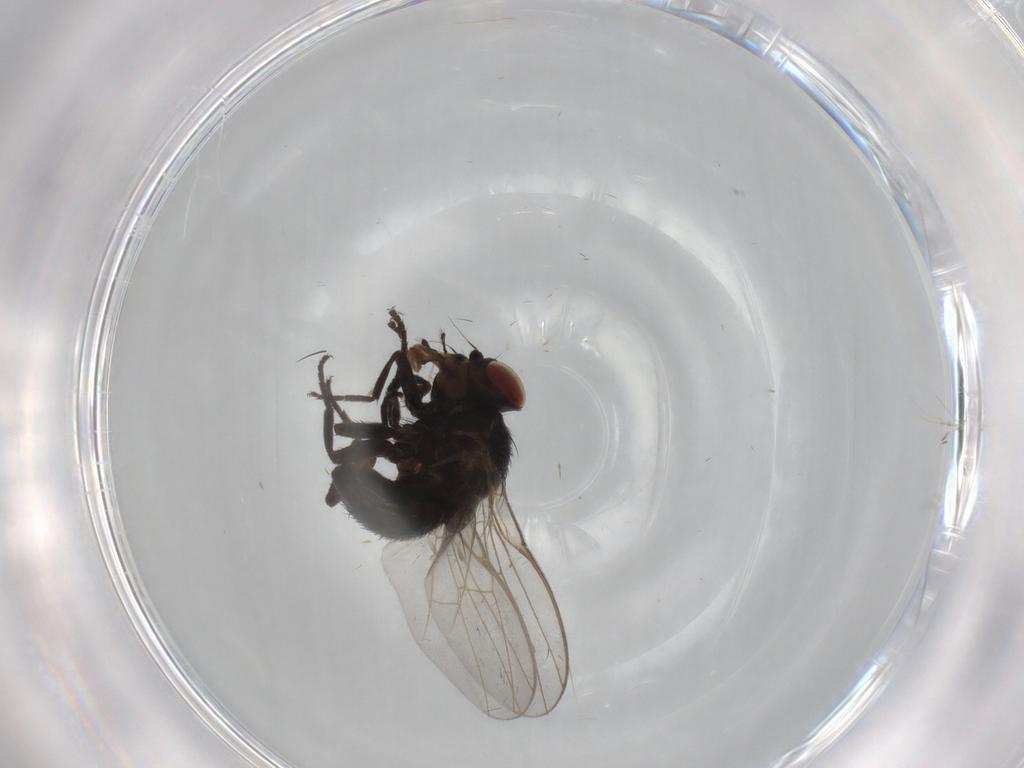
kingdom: Animalia
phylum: Arthropoda
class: Insecta
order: Diptera
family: Agromyzidae
